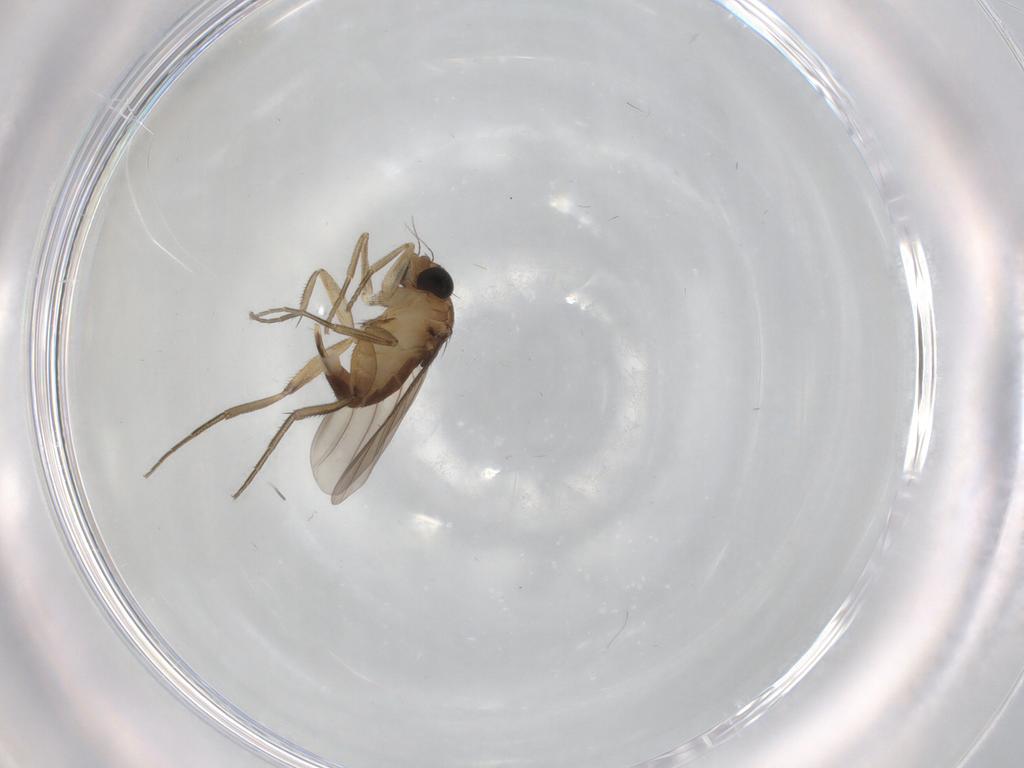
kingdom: Animalia
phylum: Arthropoda
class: Insecta
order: Diptera
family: Phoridae
